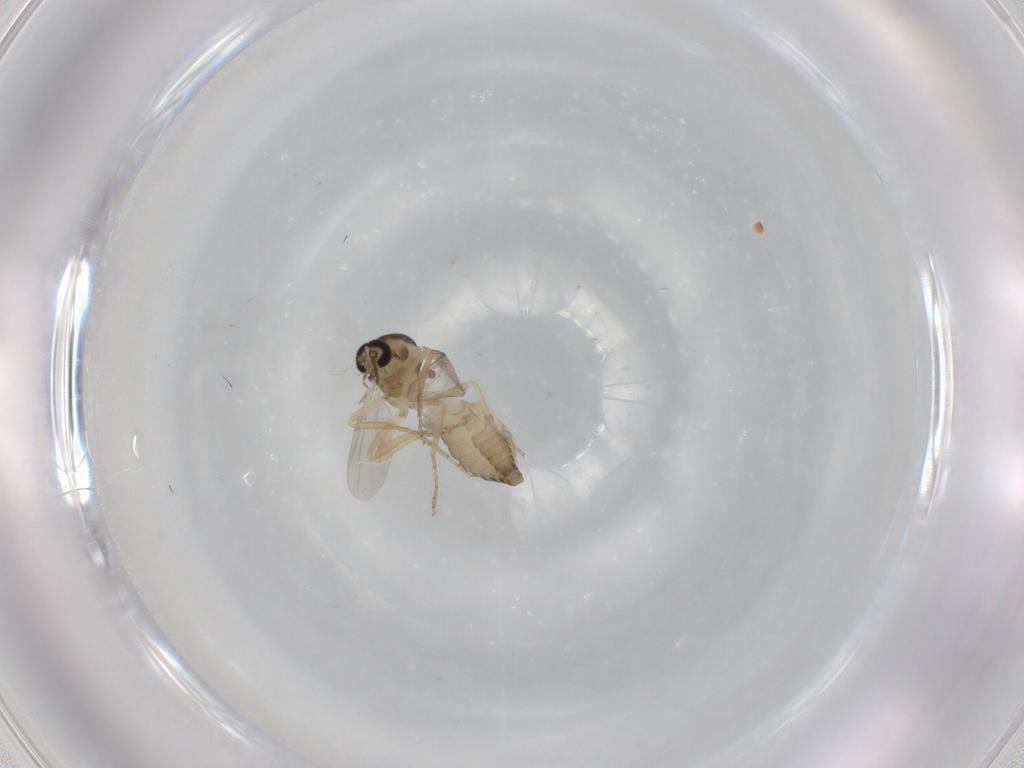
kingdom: Animalia
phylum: Arthropoda
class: Insecta
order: Diptera
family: Ceratopogonidae
